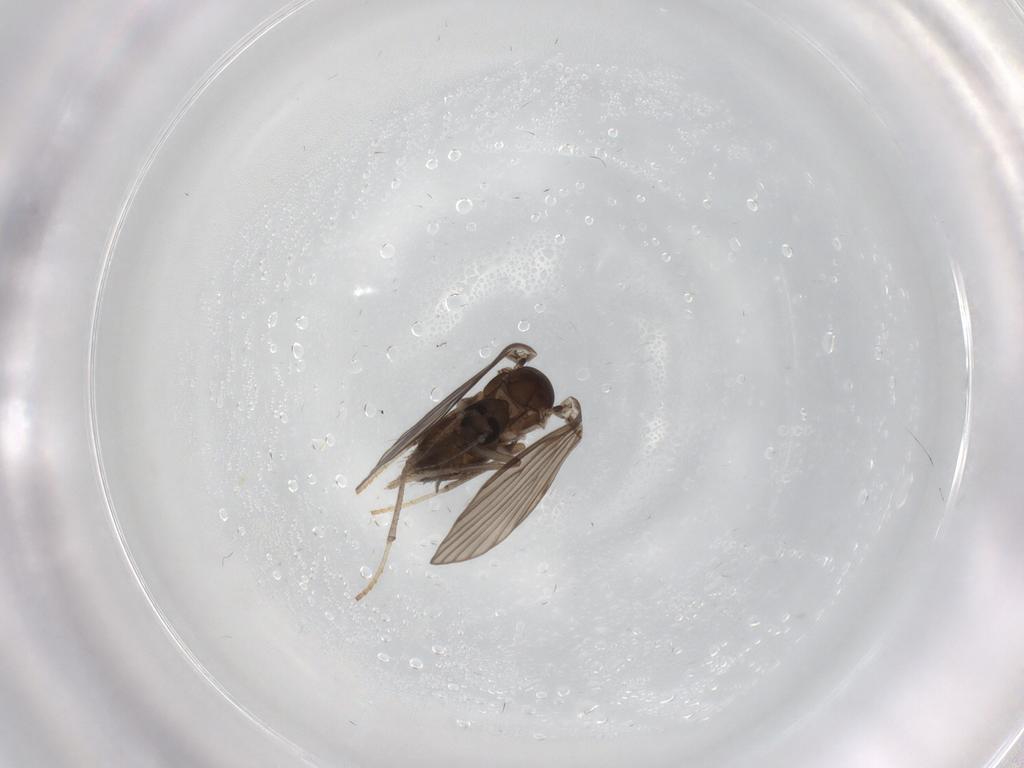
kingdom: Animalia
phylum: Arthropoda
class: Insecta
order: Diptera
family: Psychodidae
